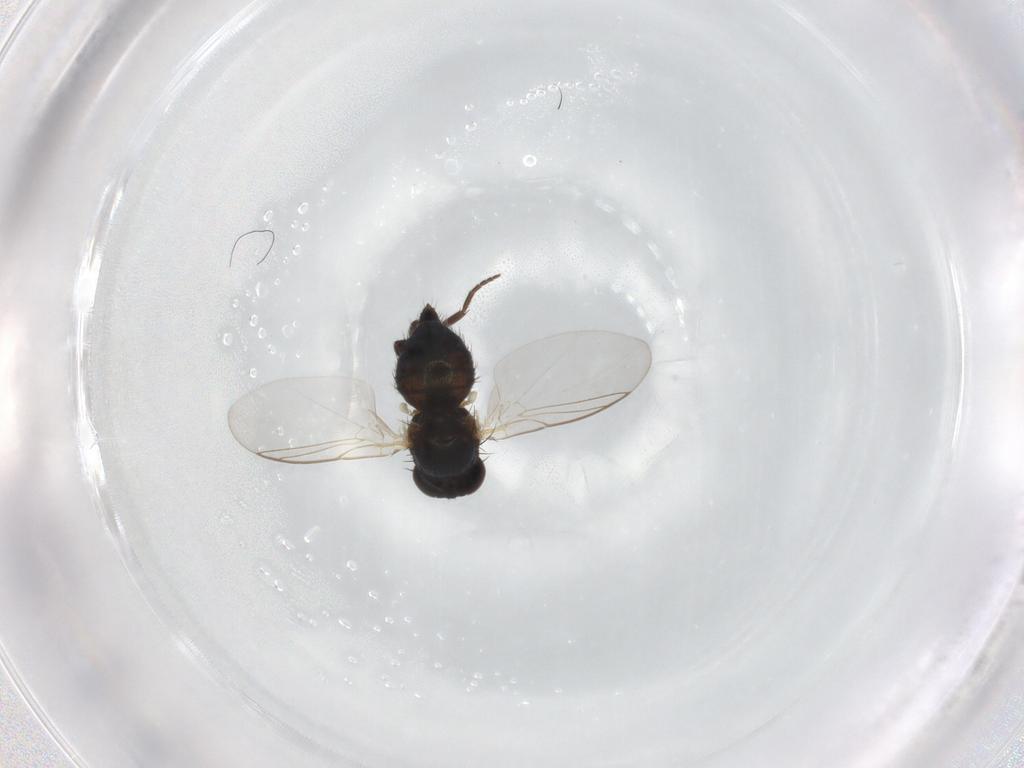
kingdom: Animalia
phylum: Arthropoda
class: Insecta
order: Diptera
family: Agromyzidae
